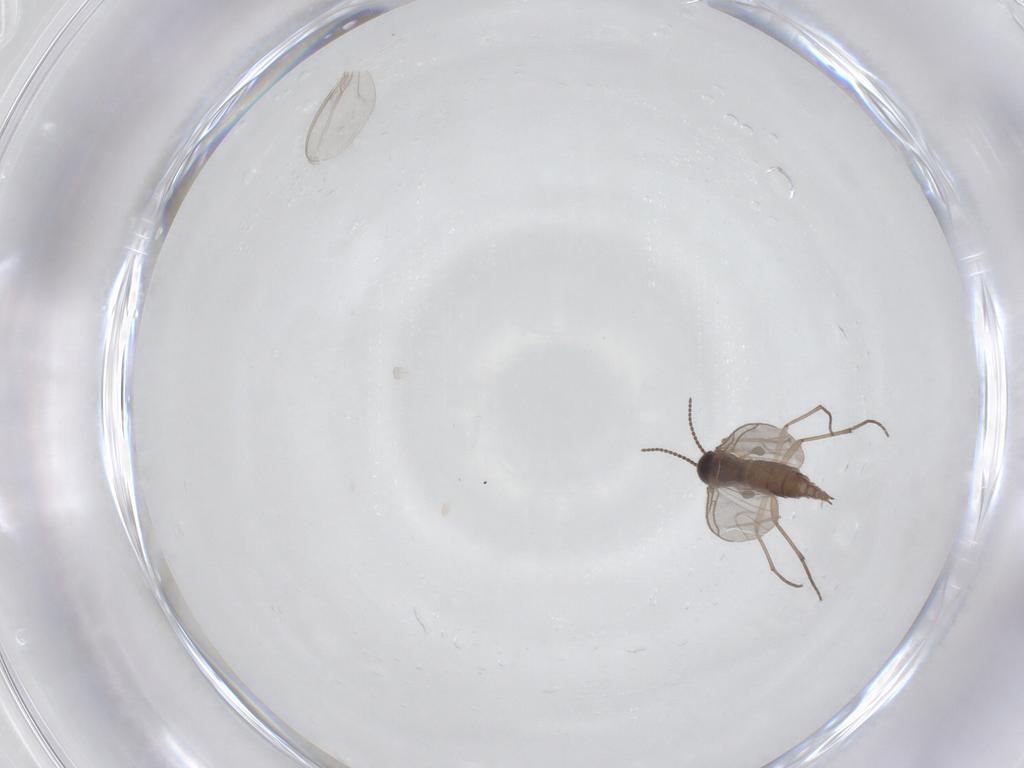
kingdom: Animalia
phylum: Arthropoda
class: Insecta
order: Diptera
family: Sciaridae
